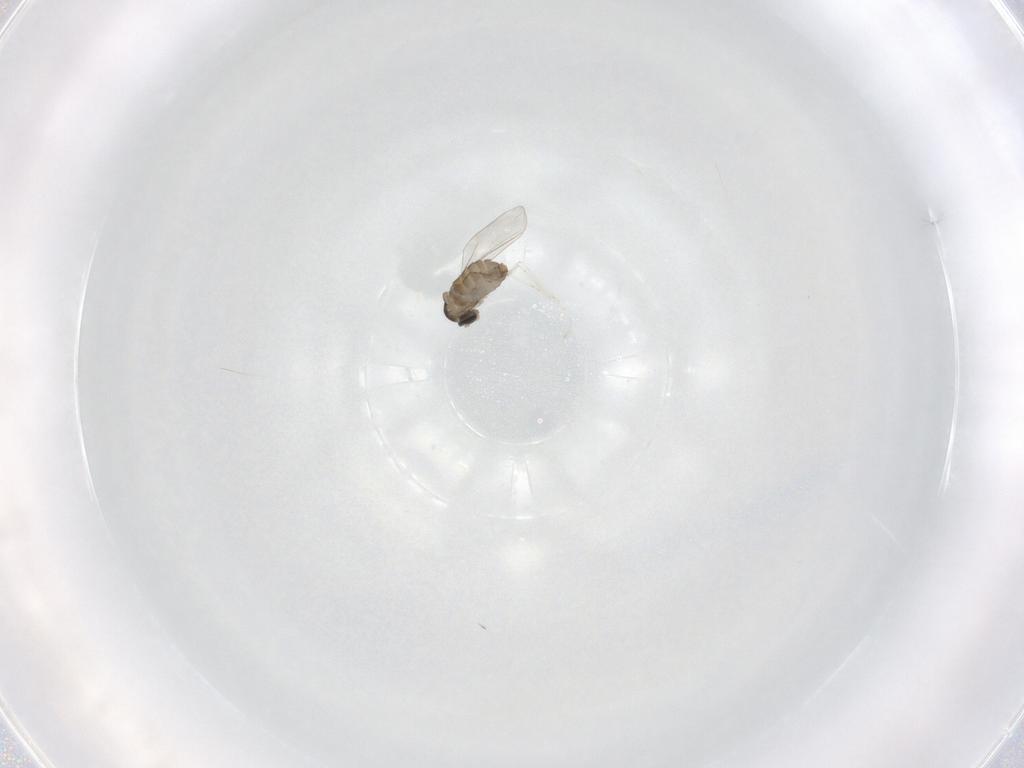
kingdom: Animalia
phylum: Arthropoda
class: Insecta
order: Diptera
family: Cecidomyiidae
